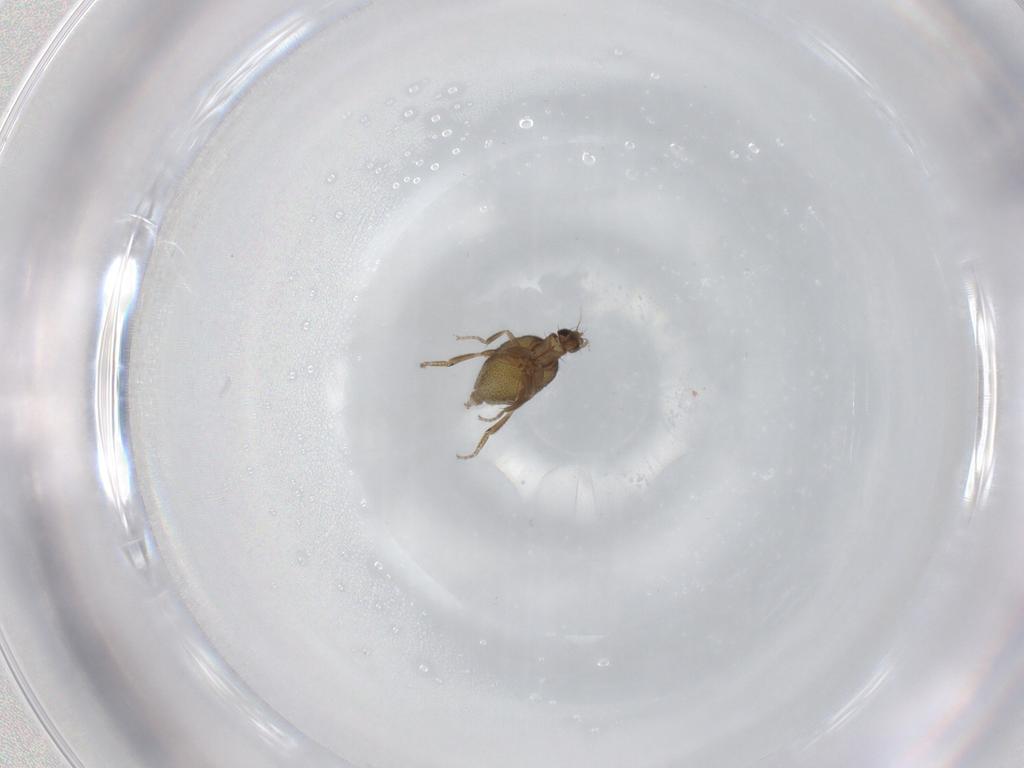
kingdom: Animalia
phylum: Arthropoda
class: Insecta
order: Diptera
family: Phoridae
